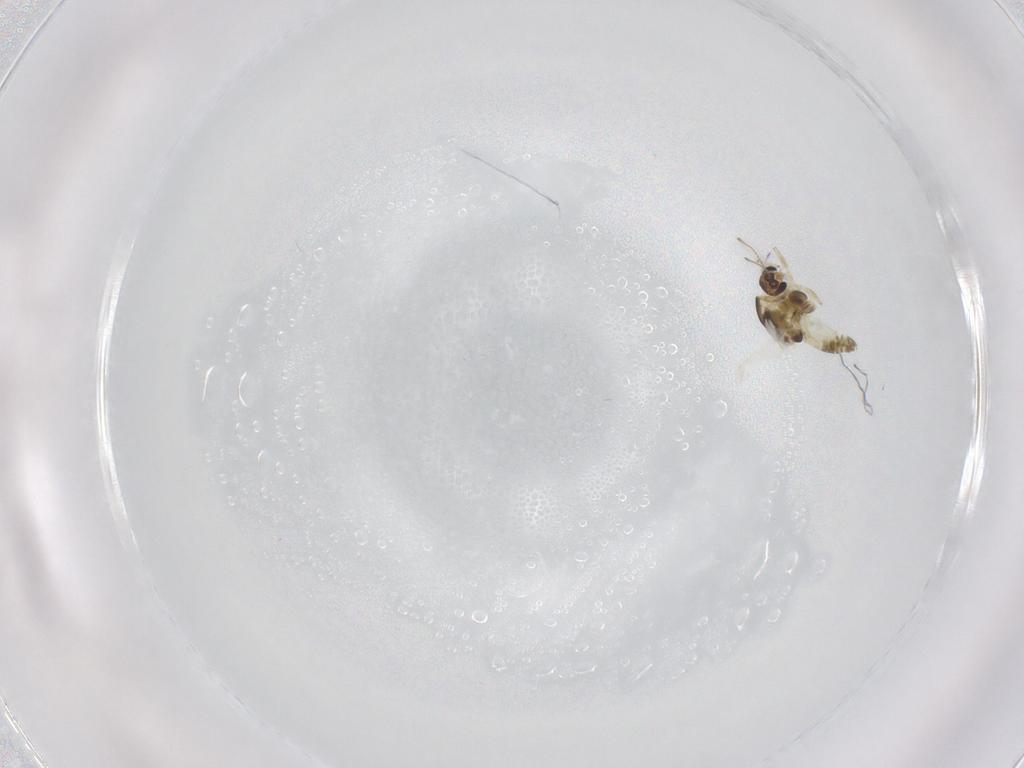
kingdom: Animalia
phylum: Arthropoda
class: Insecta
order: Diptera
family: Chironomidae
